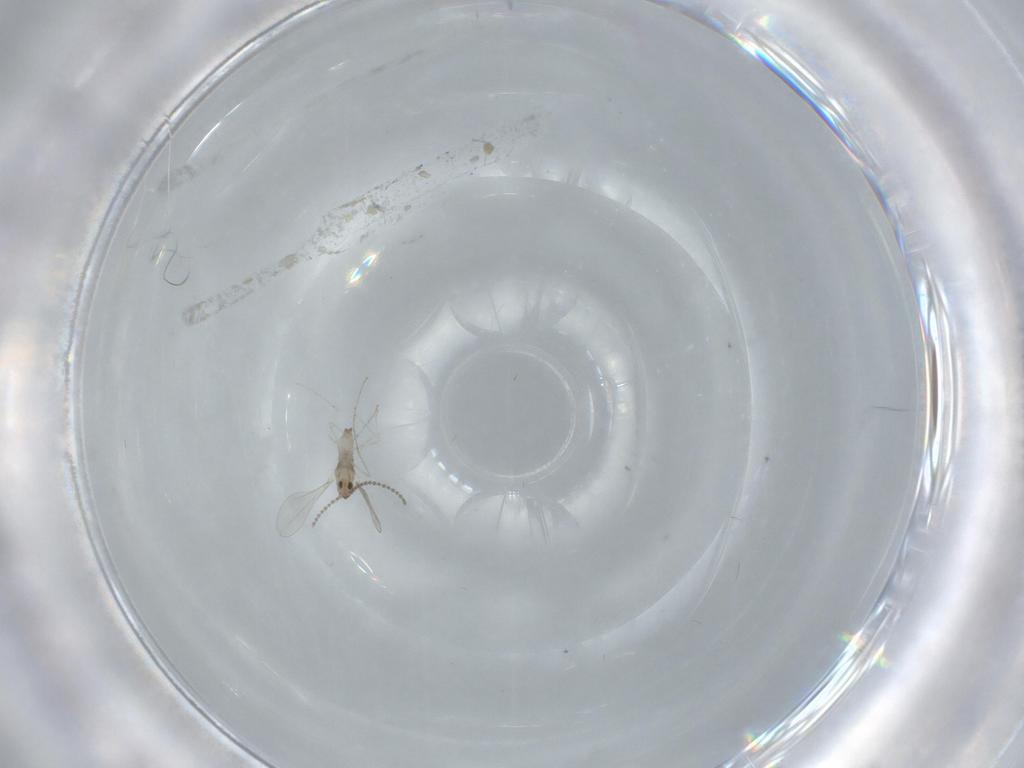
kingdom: Animalia
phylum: Arthropoda
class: Insecta
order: Diptera
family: Cecidomyiidae
